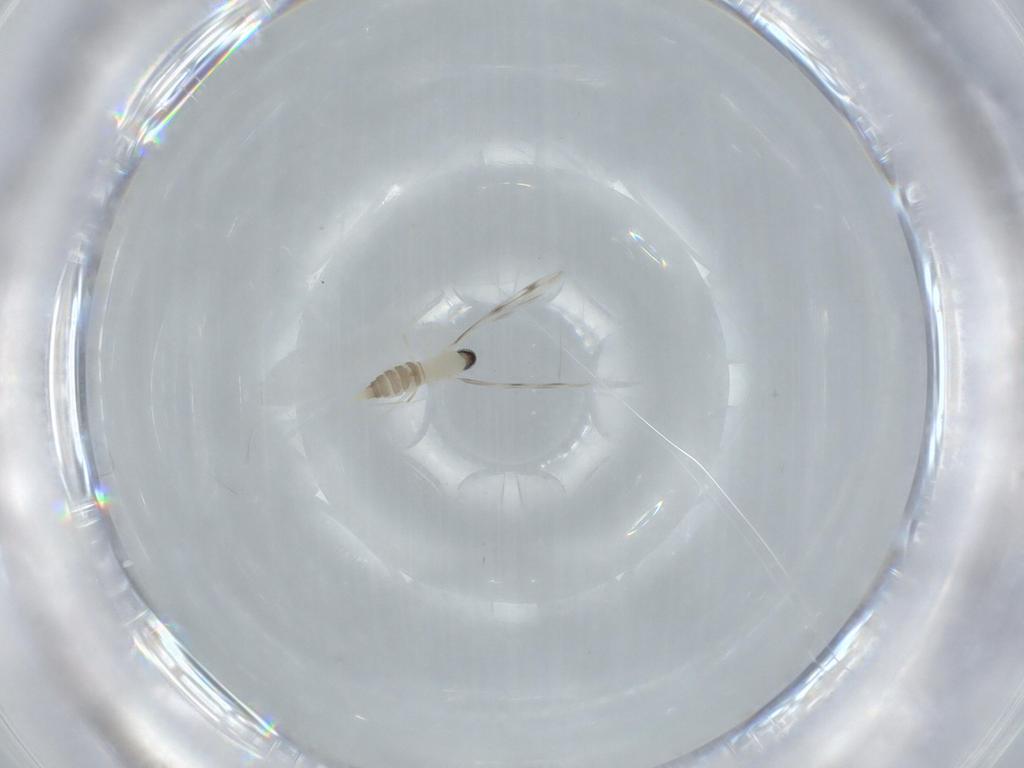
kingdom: Animalia
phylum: Arthropoda
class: Insecta
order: Diptera
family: Cecidomyiidae
